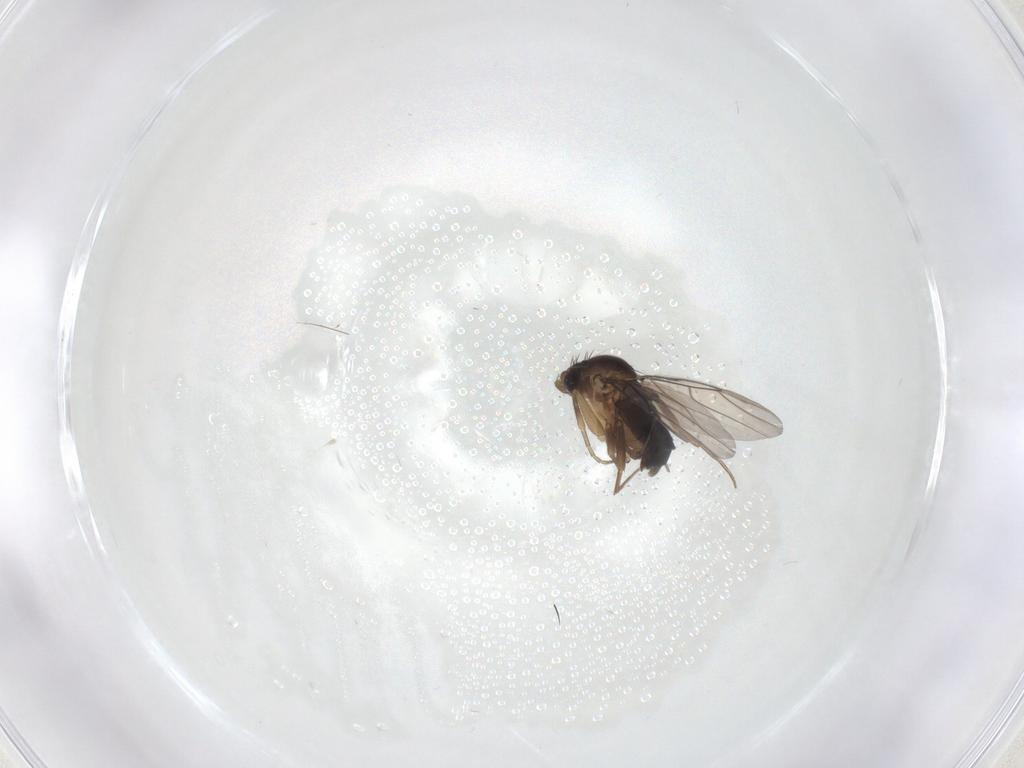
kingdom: Animalia
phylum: Arthropoda
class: Insecta
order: Diptera
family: Phoridae
